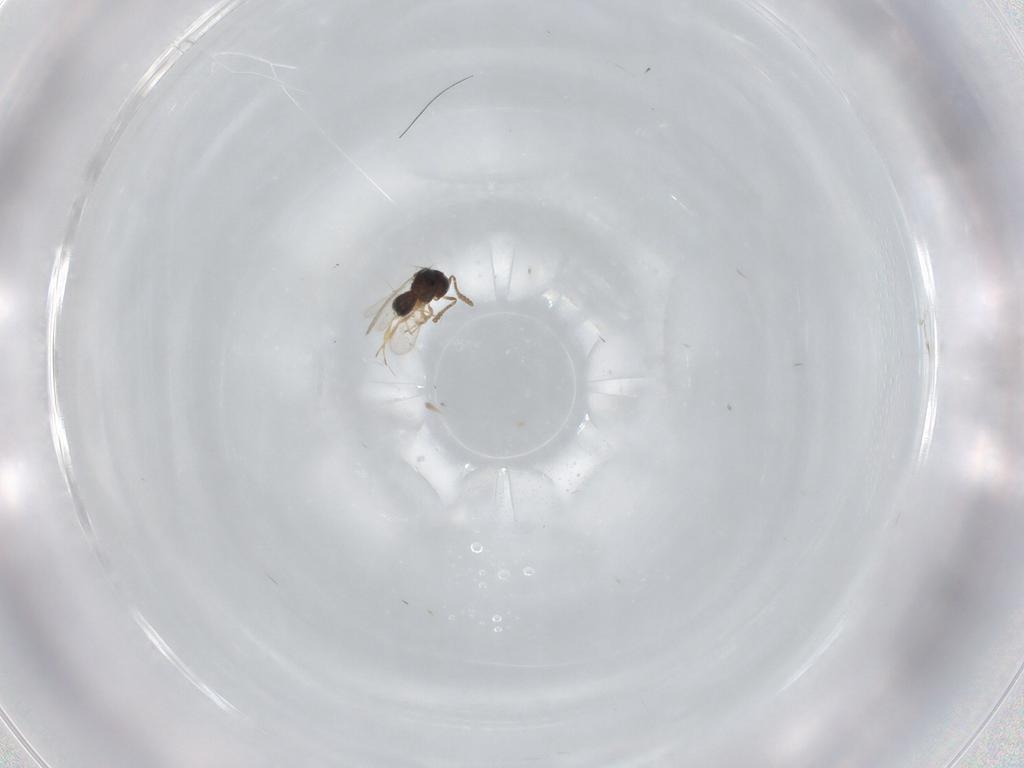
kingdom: Animalia
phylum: Arthropoda
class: Insecta
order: Hymenoptera
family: Scelionidae
